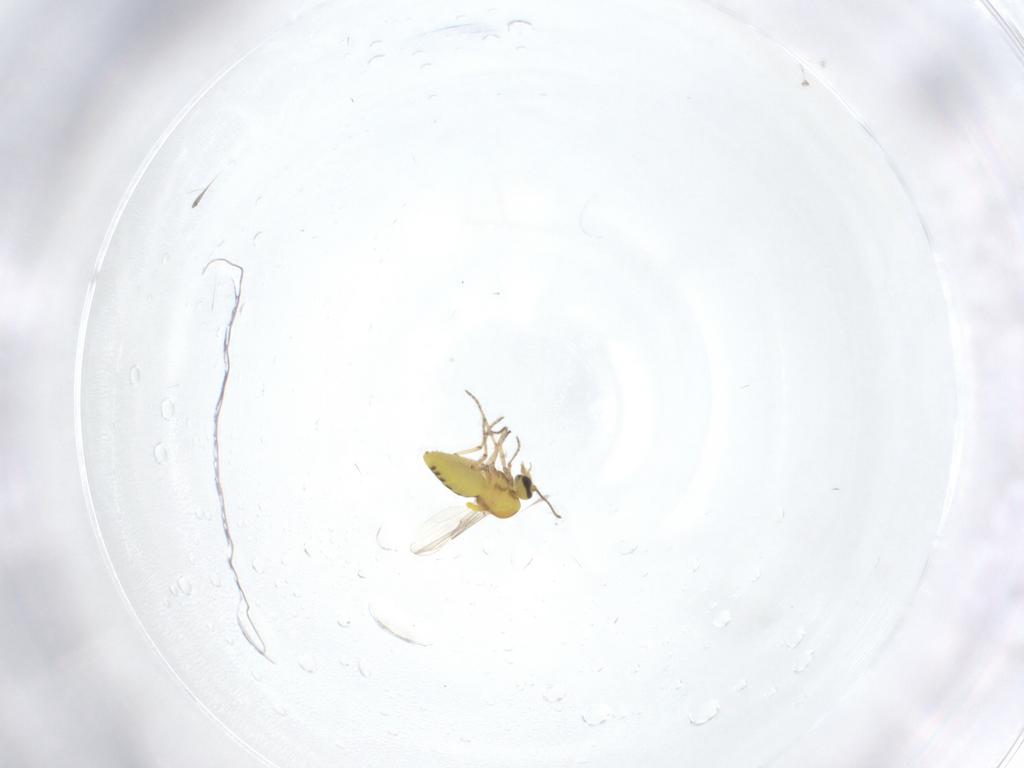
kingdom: Animalia
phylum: Arthropoda
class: Insecta
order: Diptera
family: Ceratopogonidae
